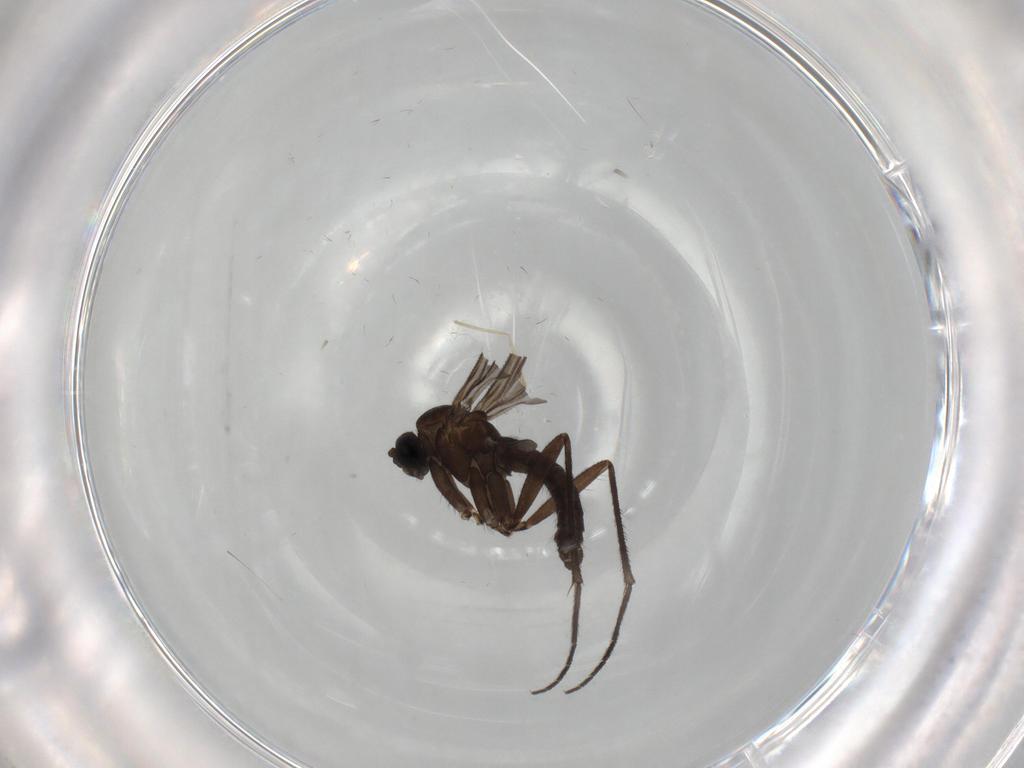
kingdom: Animalia
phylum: Arthropoda
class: Insecta
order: Diptera
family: Sciaridae
